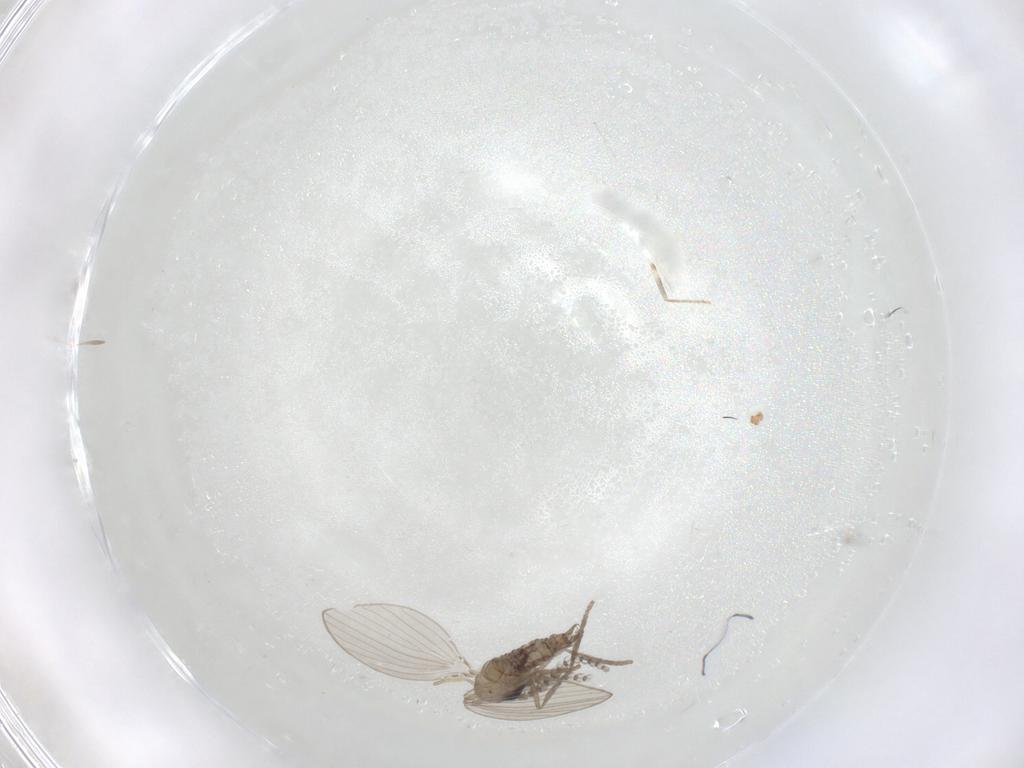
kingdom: Animalia
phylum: Arthropoda
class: Insecta
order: Diptera
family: Ceratopogonidae
